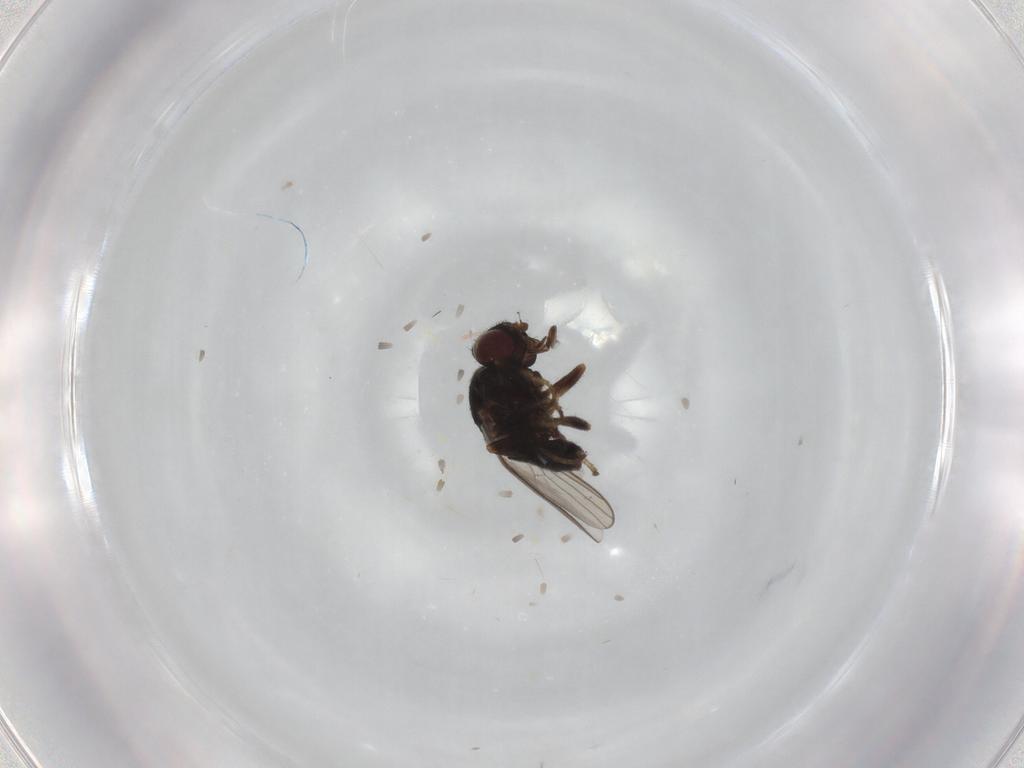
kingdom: Animalia
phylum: Arthropoda
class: Insecta
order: Diptera
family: Chloropidae
